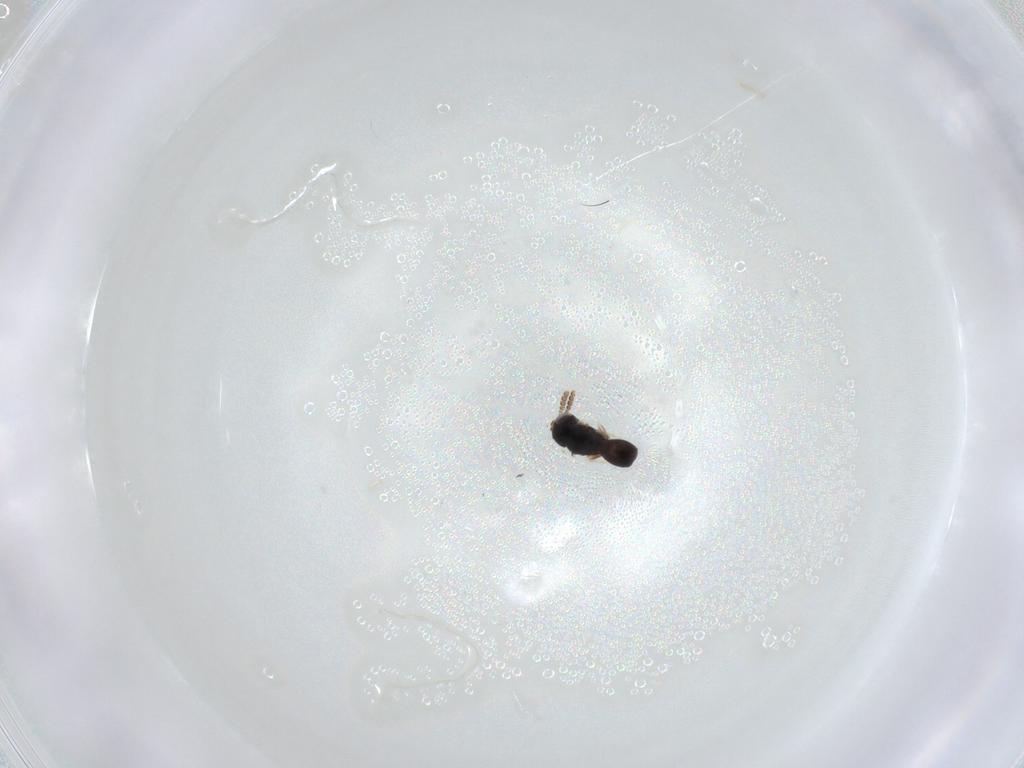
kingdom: Animalia
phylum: Arthropoda
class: Insecta
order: Hymenoptera
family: Scelionidae
